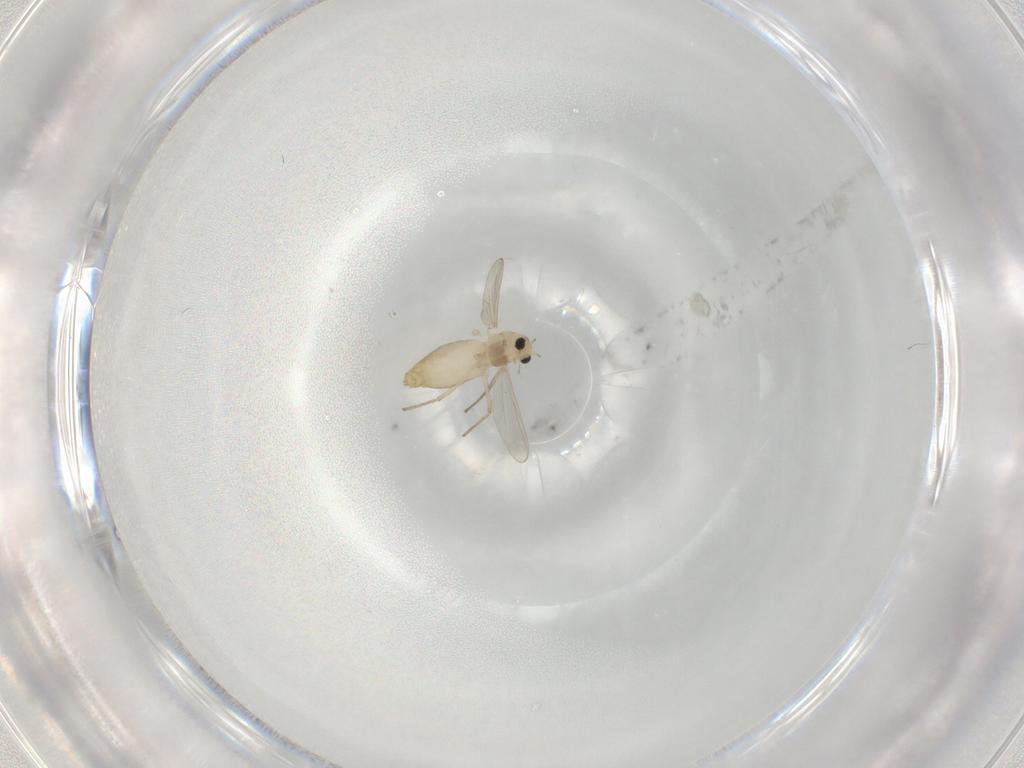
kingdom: Animalia
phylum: Arthropoda
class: Insecta
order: Diptera
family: Chironomidae
